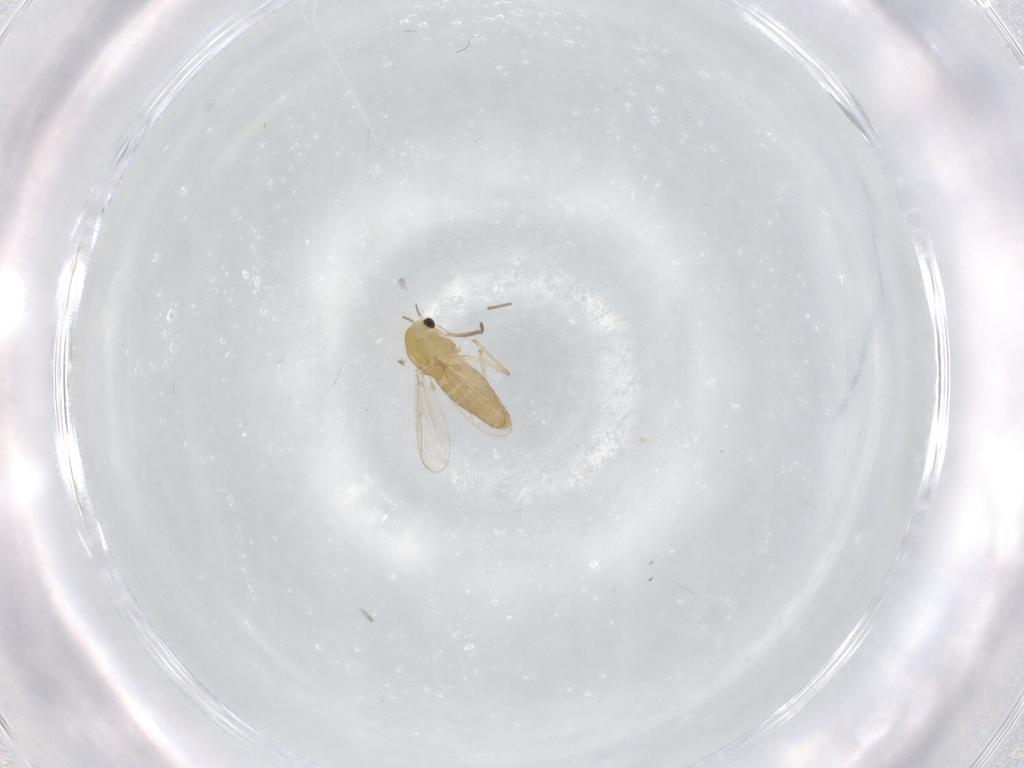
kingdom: Animalia
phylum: Arthropoda
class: Insecta
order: Diptera
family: Chironomidae
